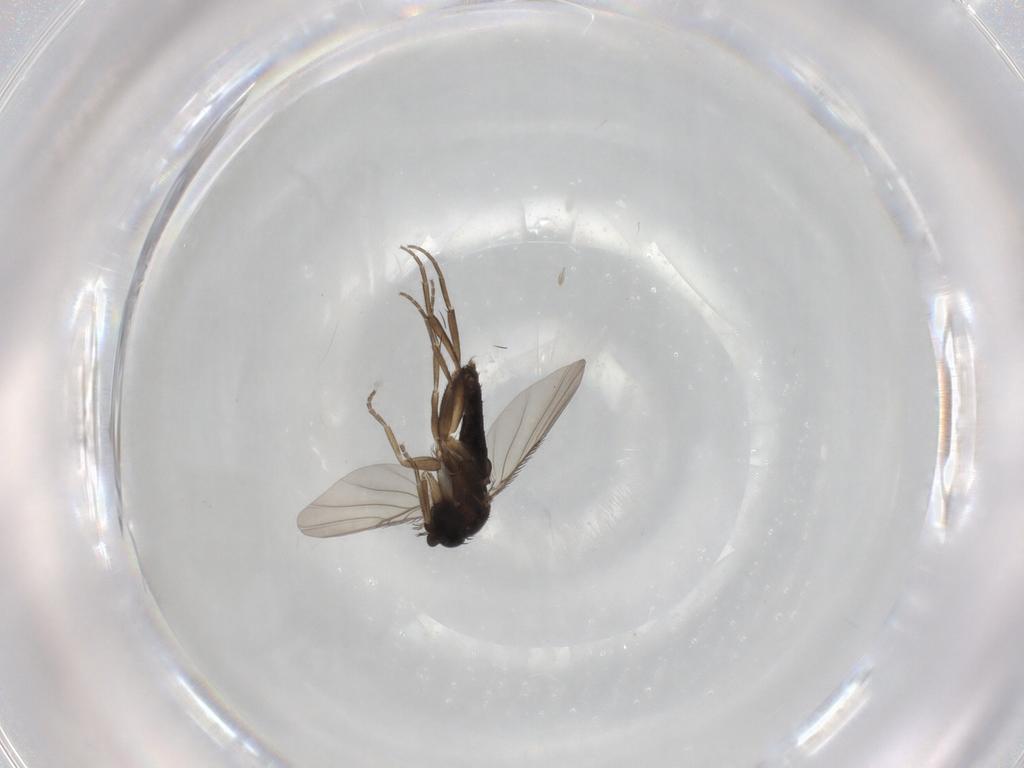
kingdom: Animalia
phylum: Arthropoda
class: Insecta
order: Diptera
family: Phoridae
